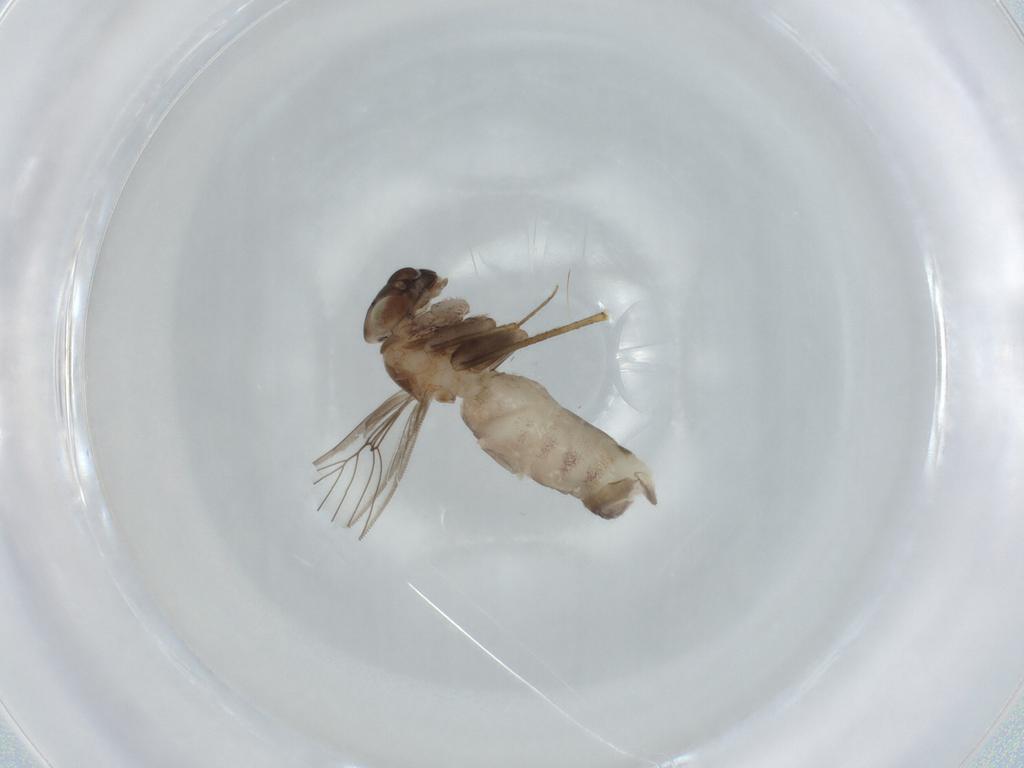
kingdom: Animalia
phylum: Arthropoda
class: Insecta
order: Psocodea
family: Lepidopsocidae
